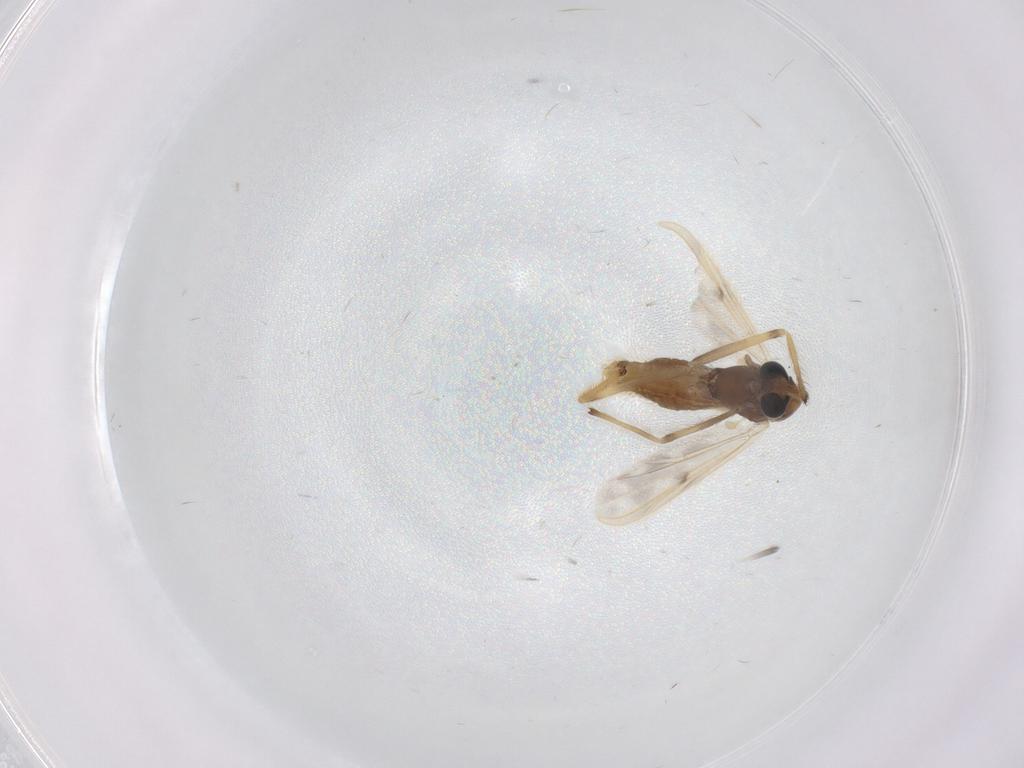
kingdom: Animalia
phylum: Arthropoda
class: Insecta
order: Diptera
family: Chironomidae
